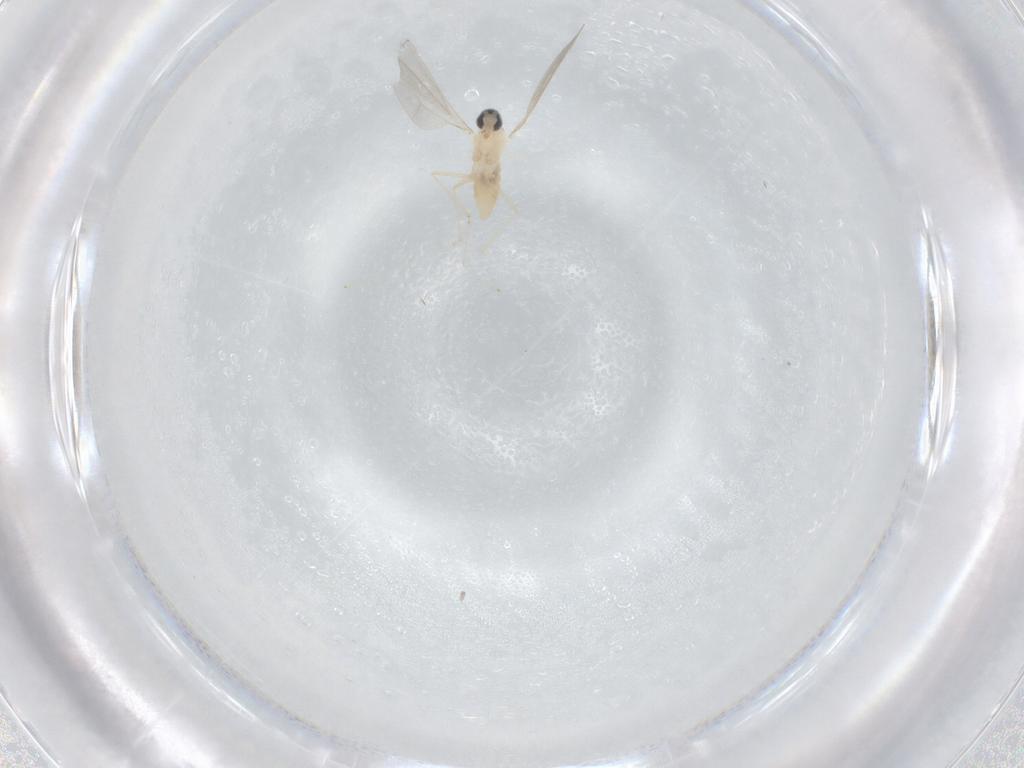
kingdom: Animalia
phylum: Arthropoda
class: Insecta
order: Diptera
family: Cecidomyiidae
